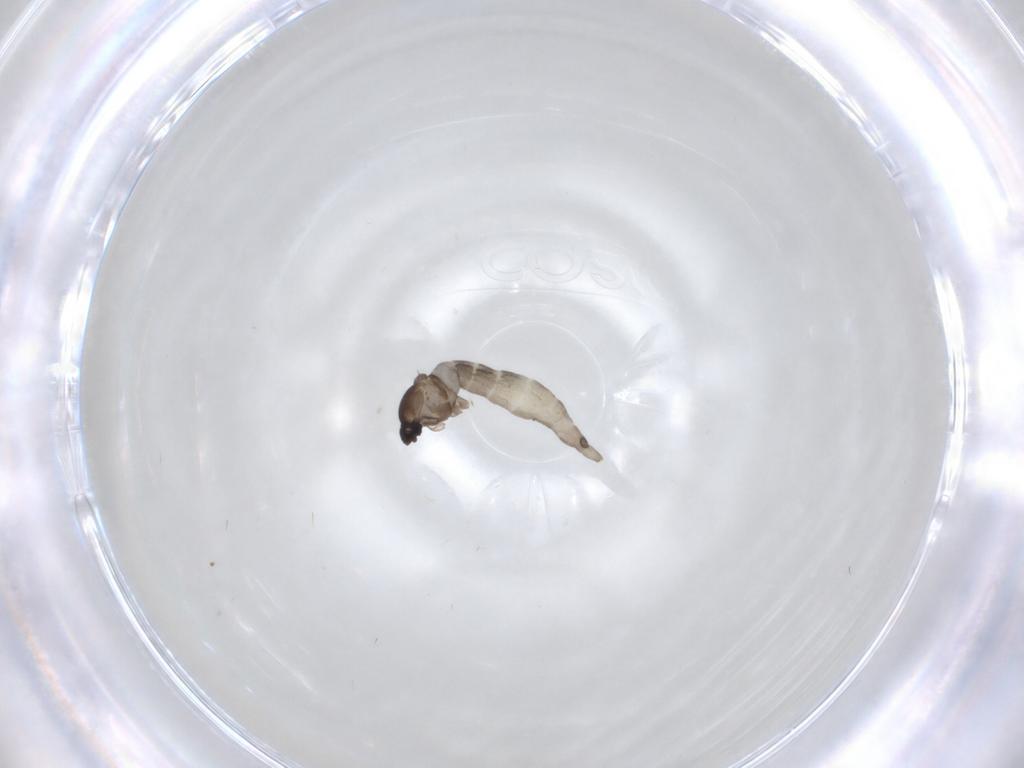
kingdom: Animalia
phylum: Arthropoda
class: Insecta
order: Diptera
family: Cecidomyiidae
